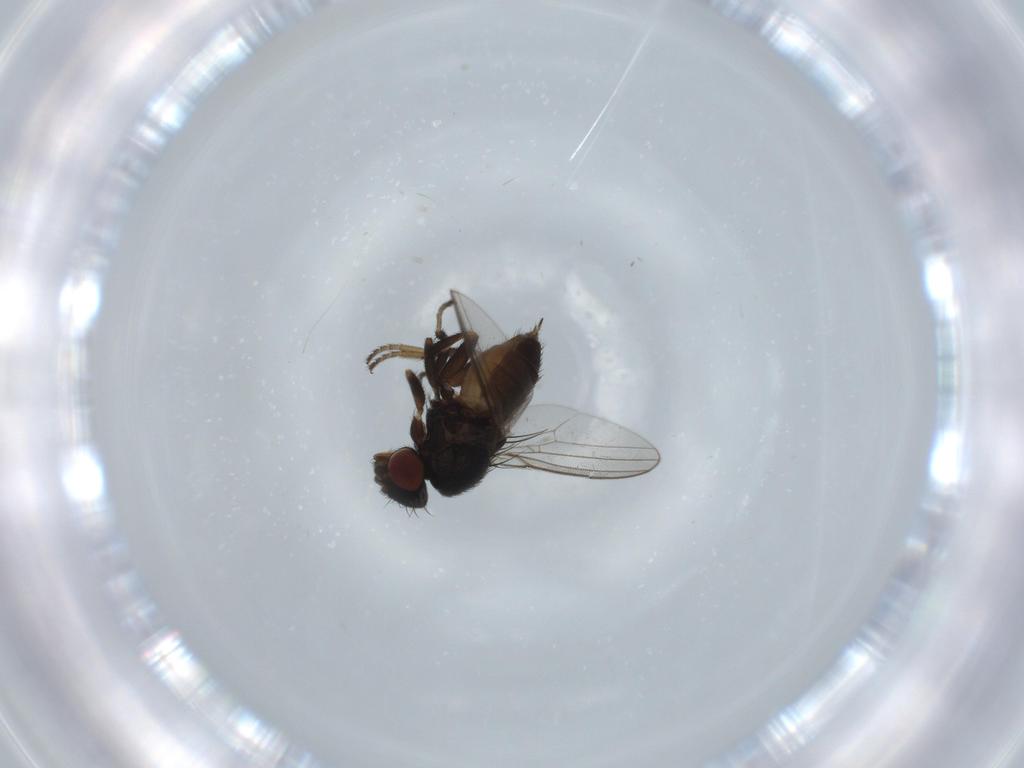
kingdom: Animalia
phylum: Arthropoda
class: Insecta
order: Diptera
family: Milichiidae
